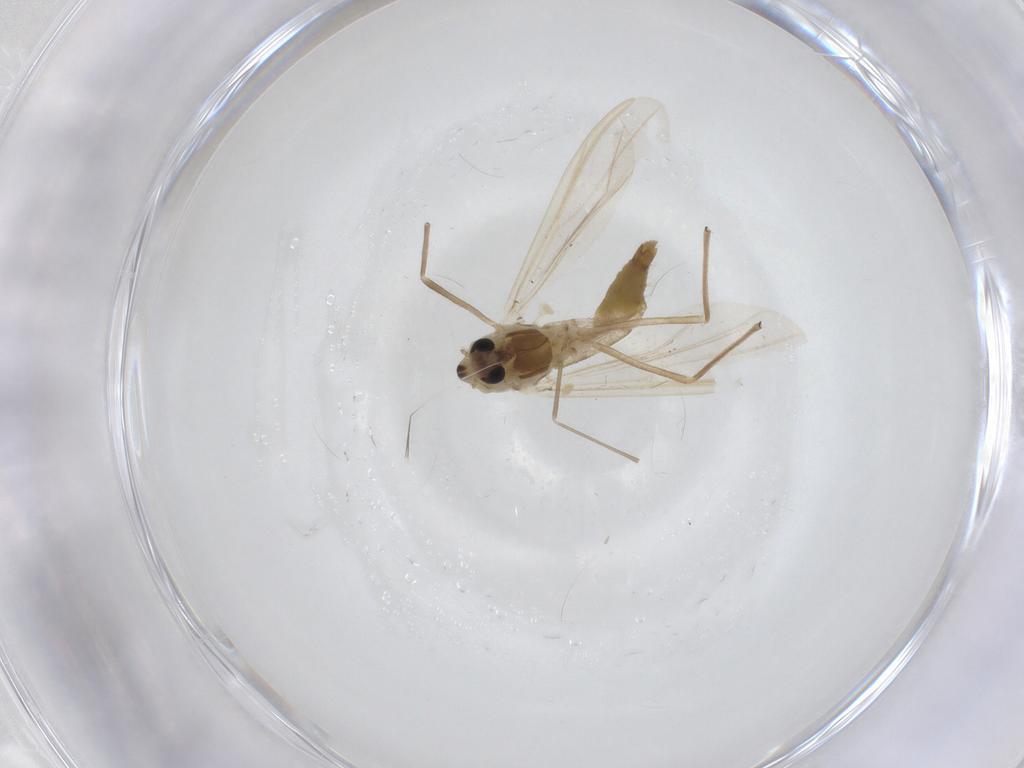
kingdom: Animalia
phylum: Arthropoda
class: Insecta
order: Diptera
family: Chironomidae
